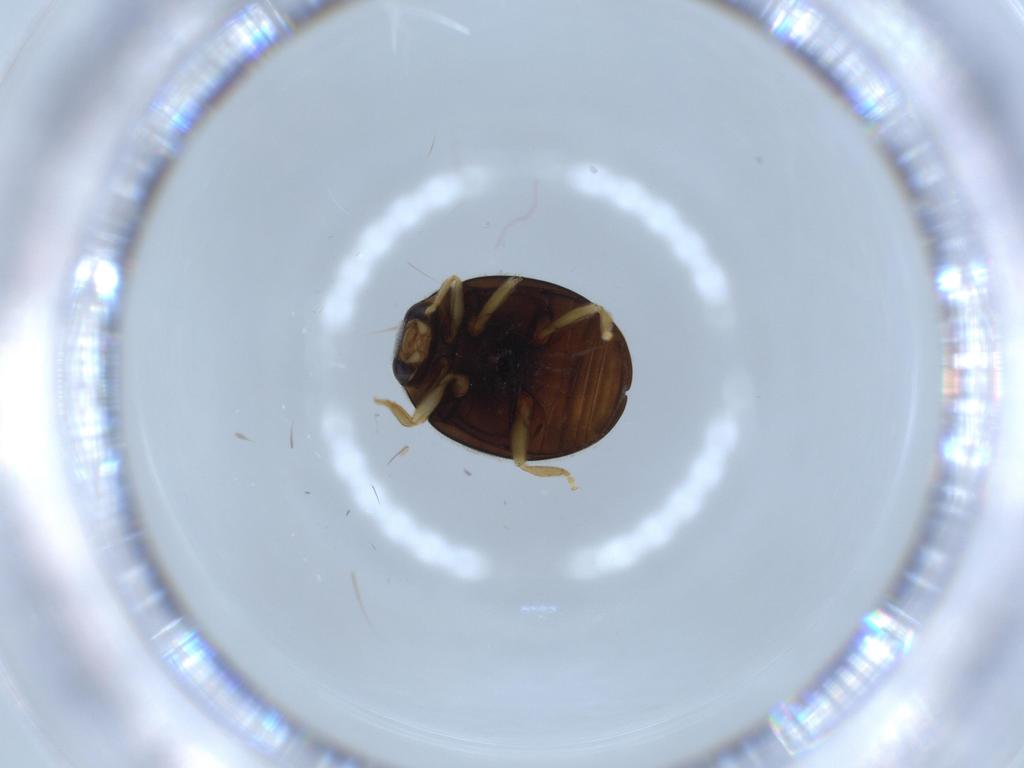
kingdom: Animalia
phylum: Arthropoda
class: Insecta
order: Coleoptera
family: Coccinellidae
